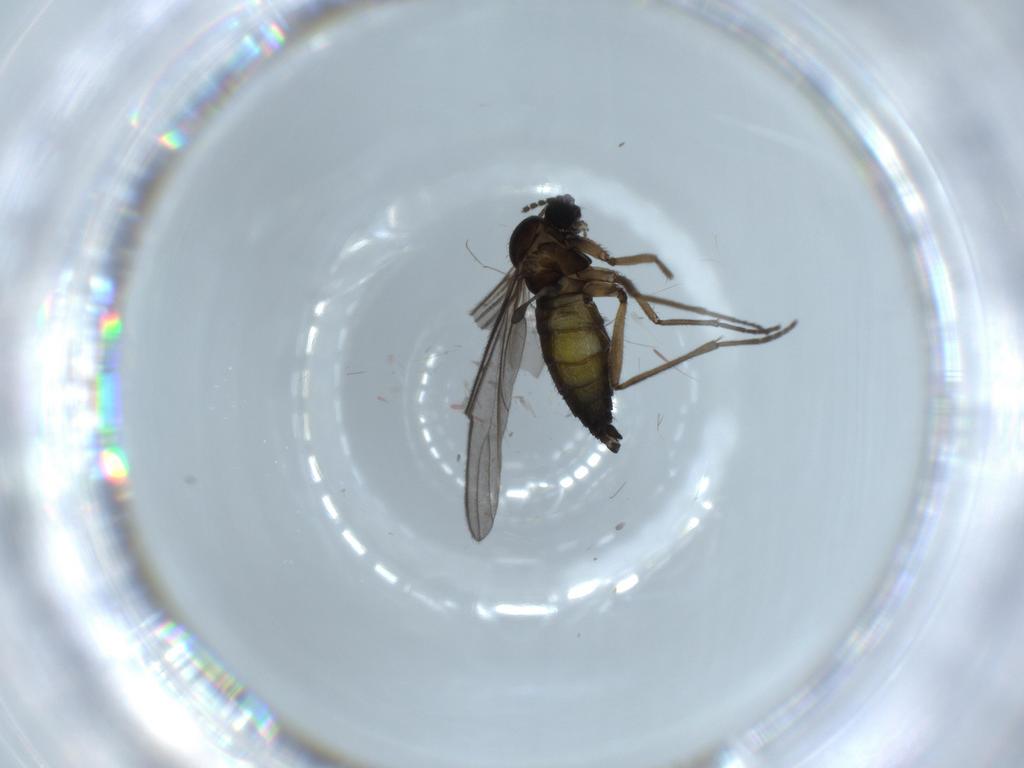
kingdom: Animalia
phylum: Arthropoda
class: Insecta
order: Diptera
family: Sciaridae
